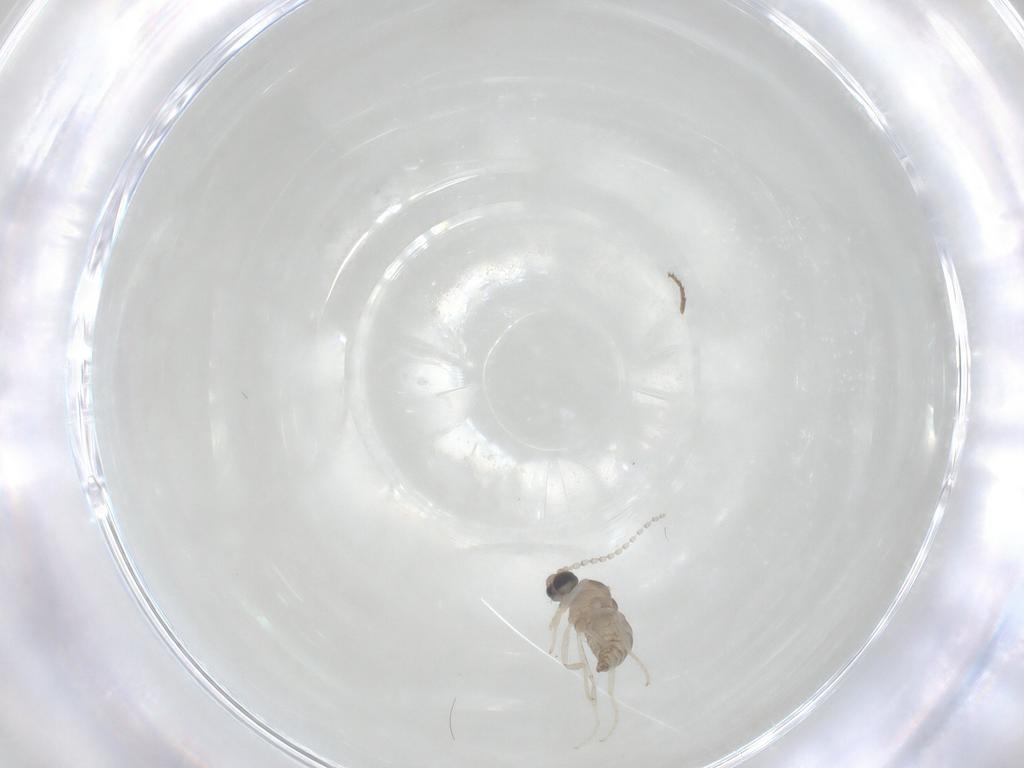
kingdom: Animalia
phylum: Arthropoda
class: Insecta
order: Diptera
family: Cecidomyiidae
